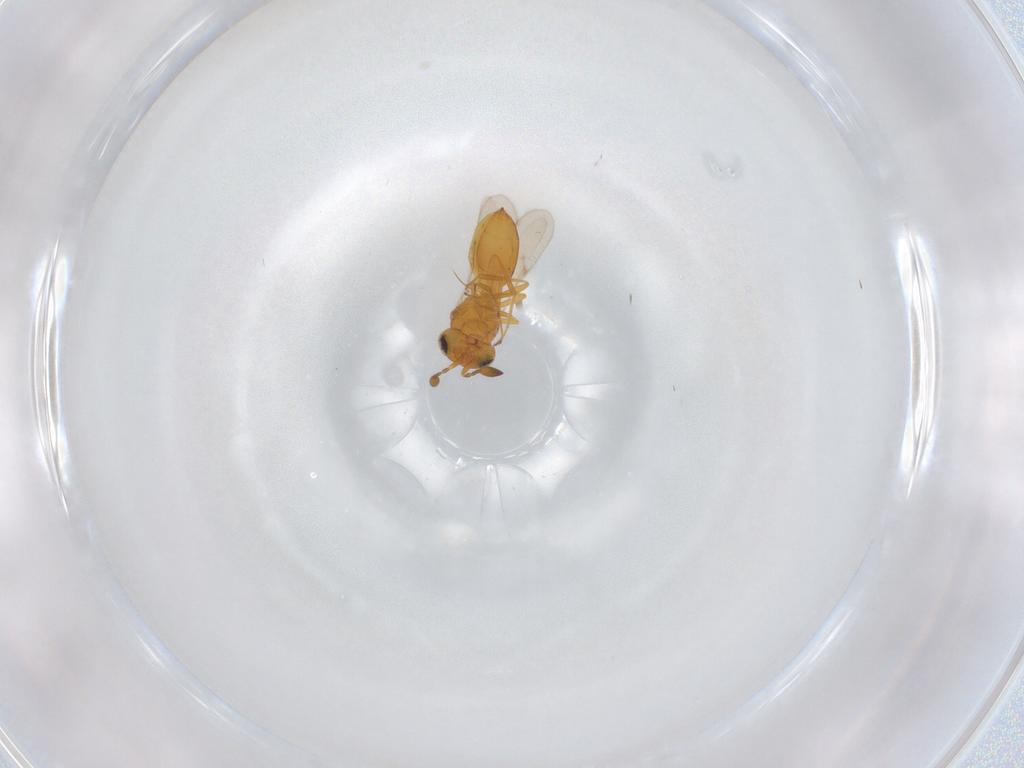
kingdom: Animalia
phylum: Arthropoda
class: Insecta
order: Hymenoptera
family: Scelionidae
